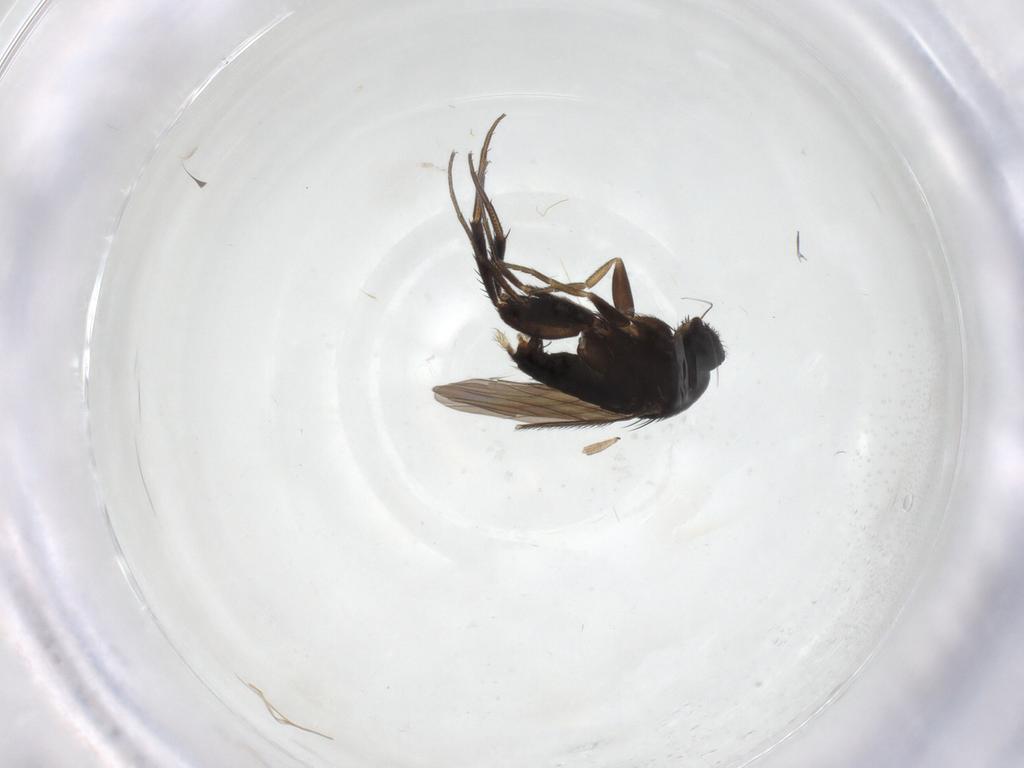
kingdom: Animalia
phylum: Arthropoda
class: Insecta
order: Diptera
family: Phoridae
